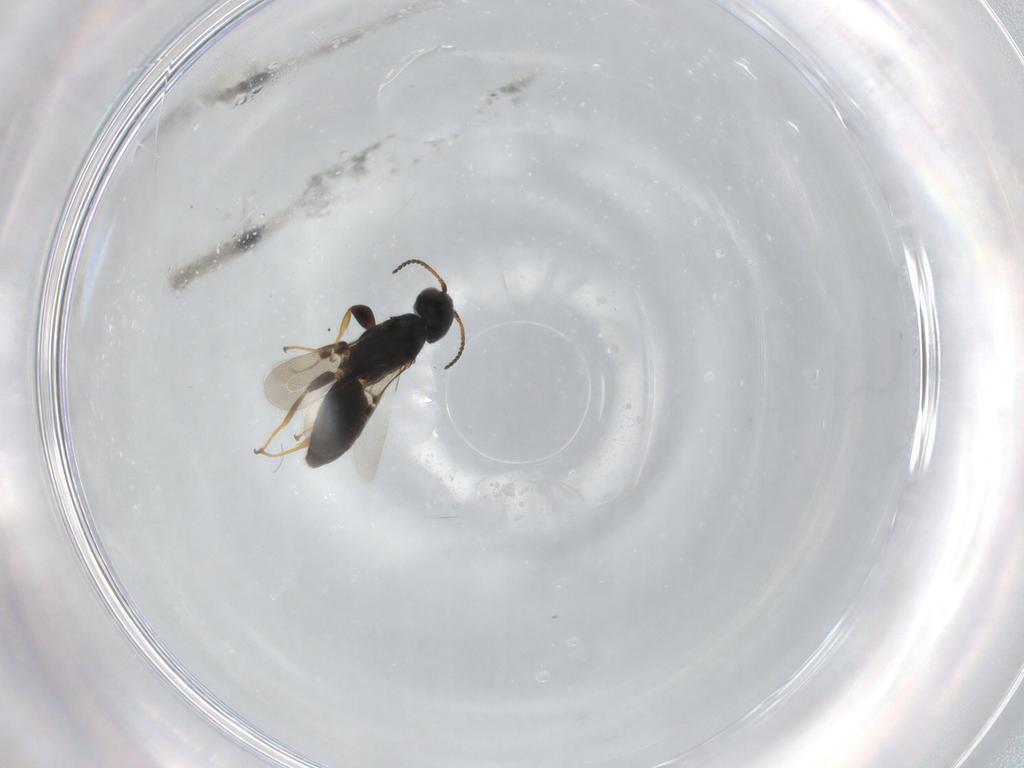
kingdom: Animalia
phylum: Arthropoda
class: Insecta
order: Hymenoptera
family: Bethylidae
